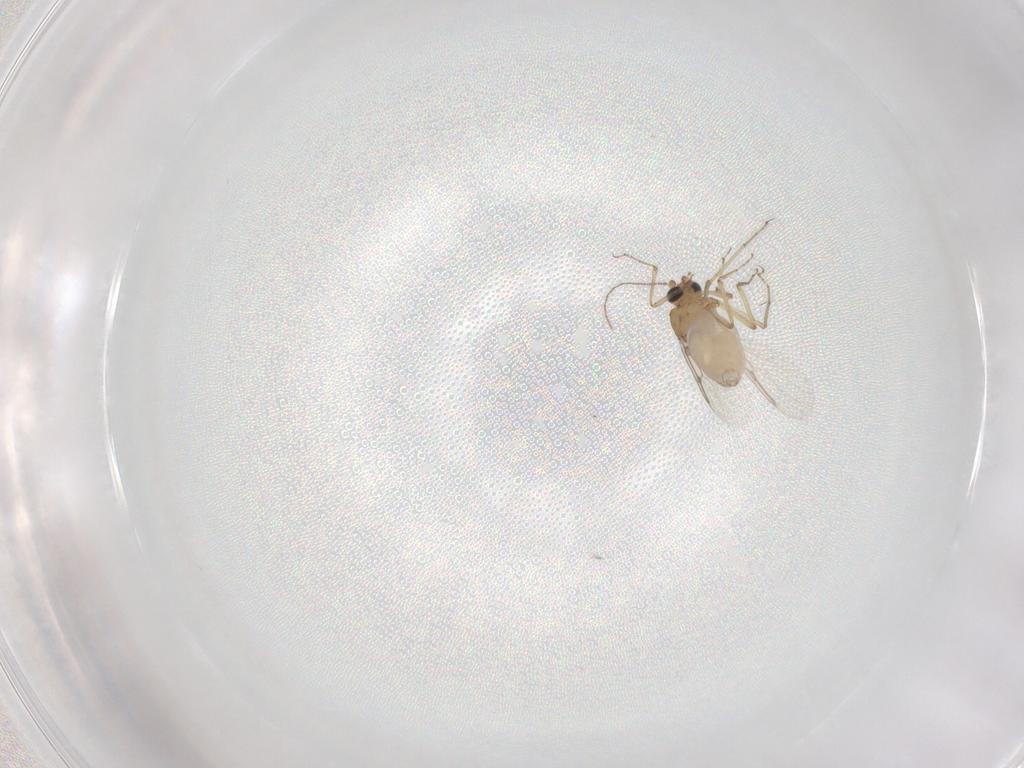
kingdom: Animalia
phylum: Arthropoda
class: Insecta
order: Diptera
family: Ceratopogonidae
